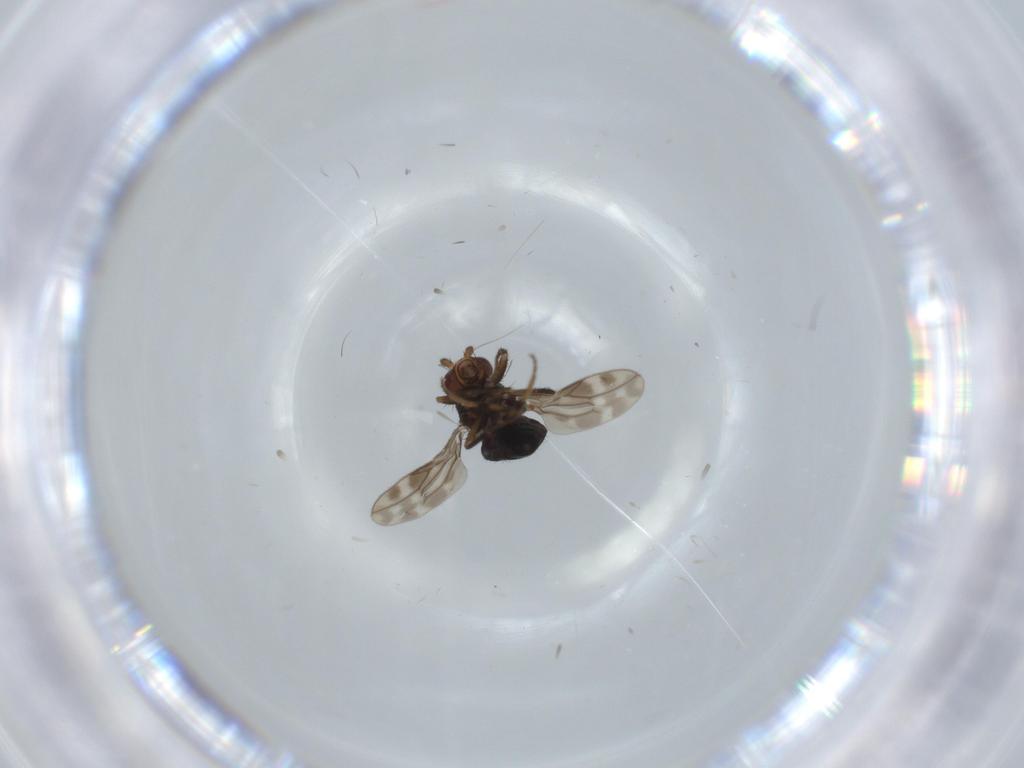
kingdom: Animalia
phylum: Arthropoda
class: Insecta
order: Diptera
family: Sphaeroceridae
